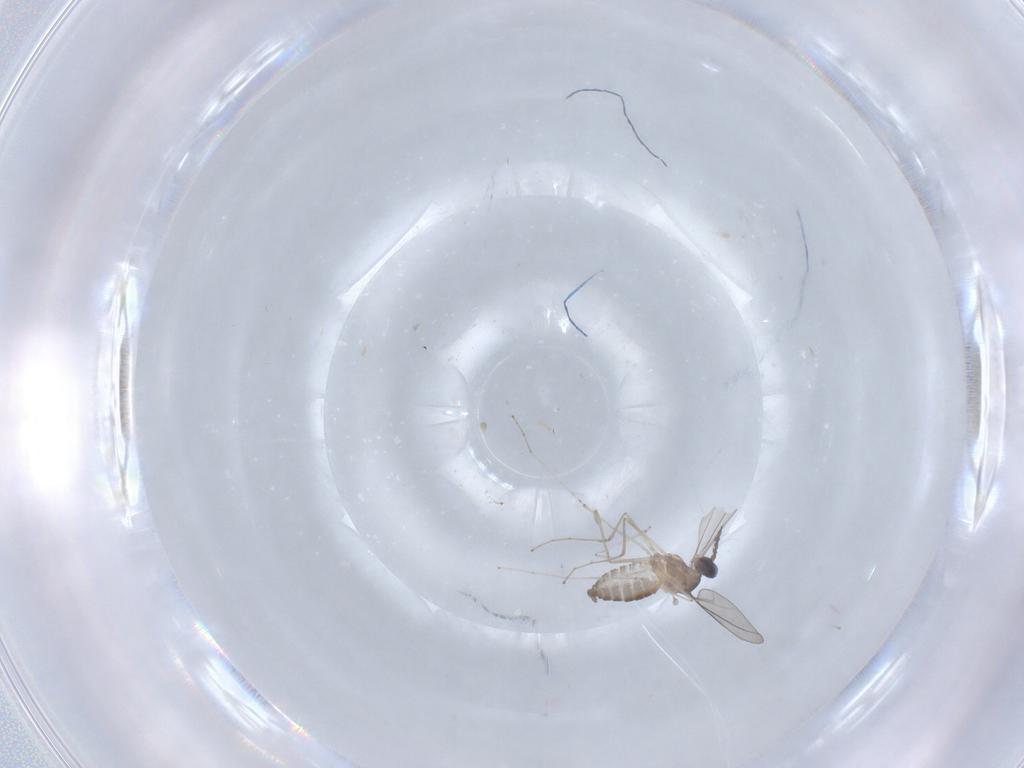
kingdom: Animalia
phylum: Arthropoda
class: Insecta
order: Diptera
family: Cecidomyiidae
